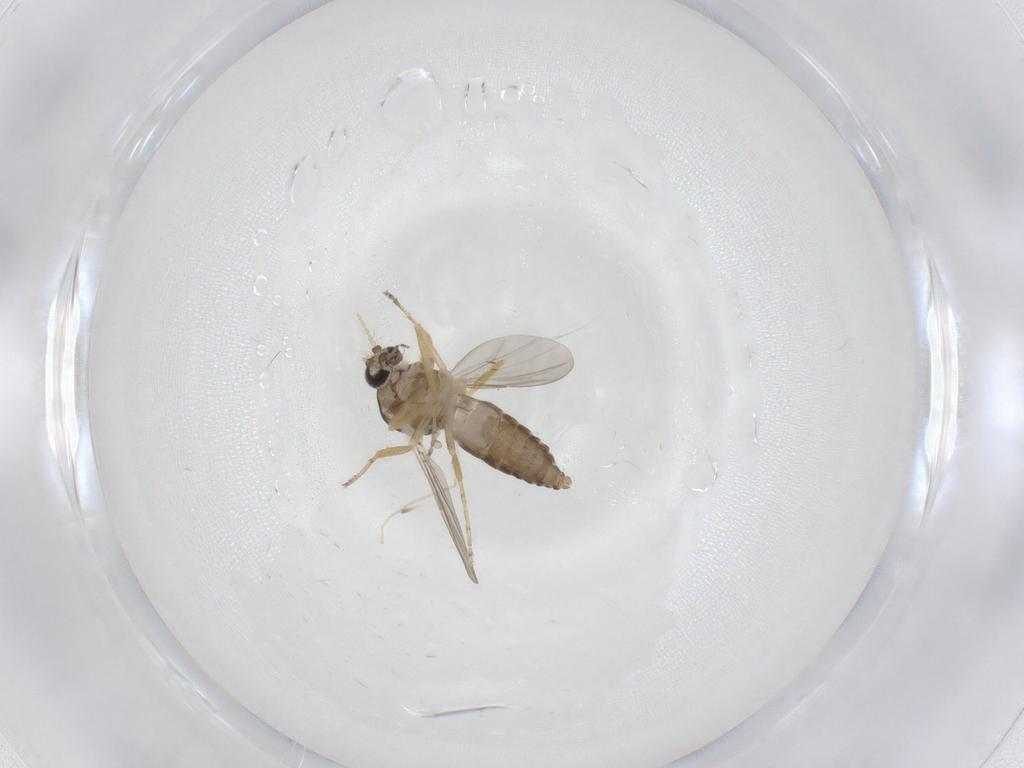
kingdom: Animalia
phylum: Arthropoda
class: Insecta
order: Diptera
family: Ceratopogonidae
